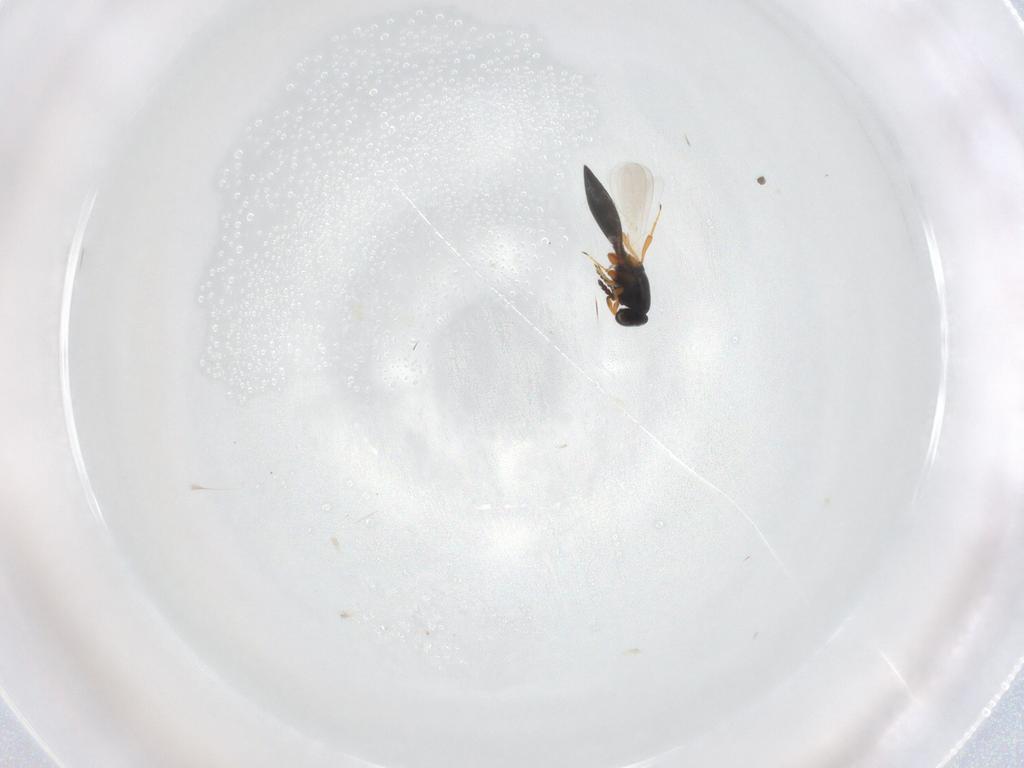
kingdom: Animalia
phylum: Arthropoda
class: Insecta
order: Hymenoptera
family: Platygastridae
